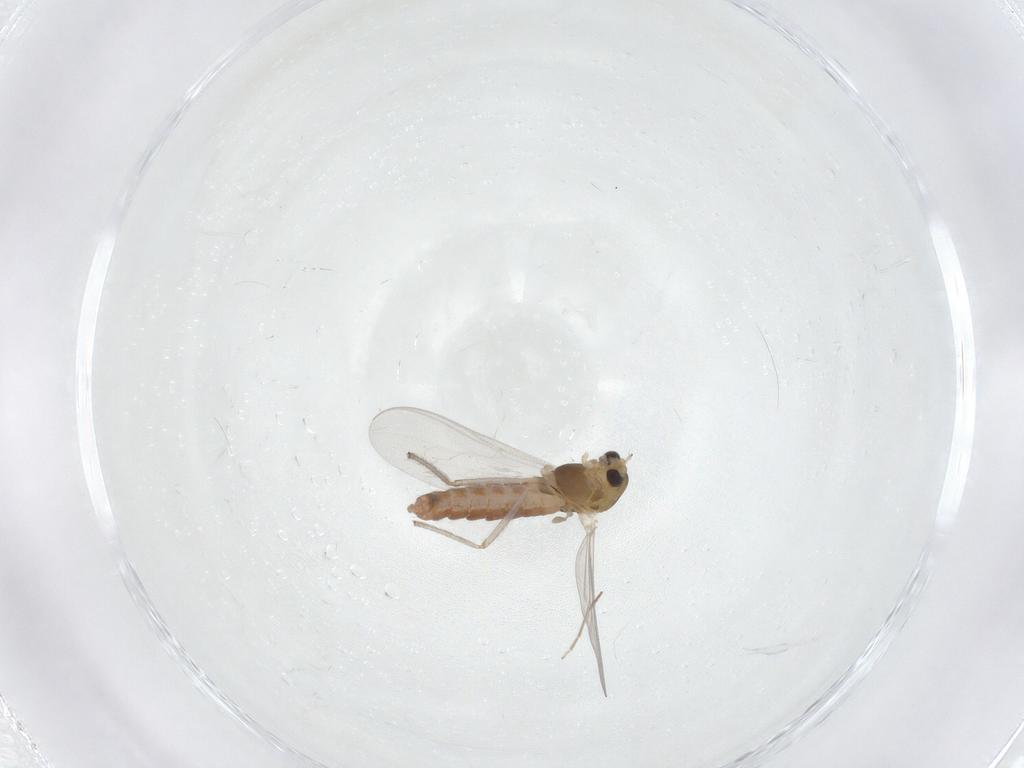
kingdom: Animalia
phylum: Arthropoda
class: Insecta
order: Diptera
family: Chironomidae
